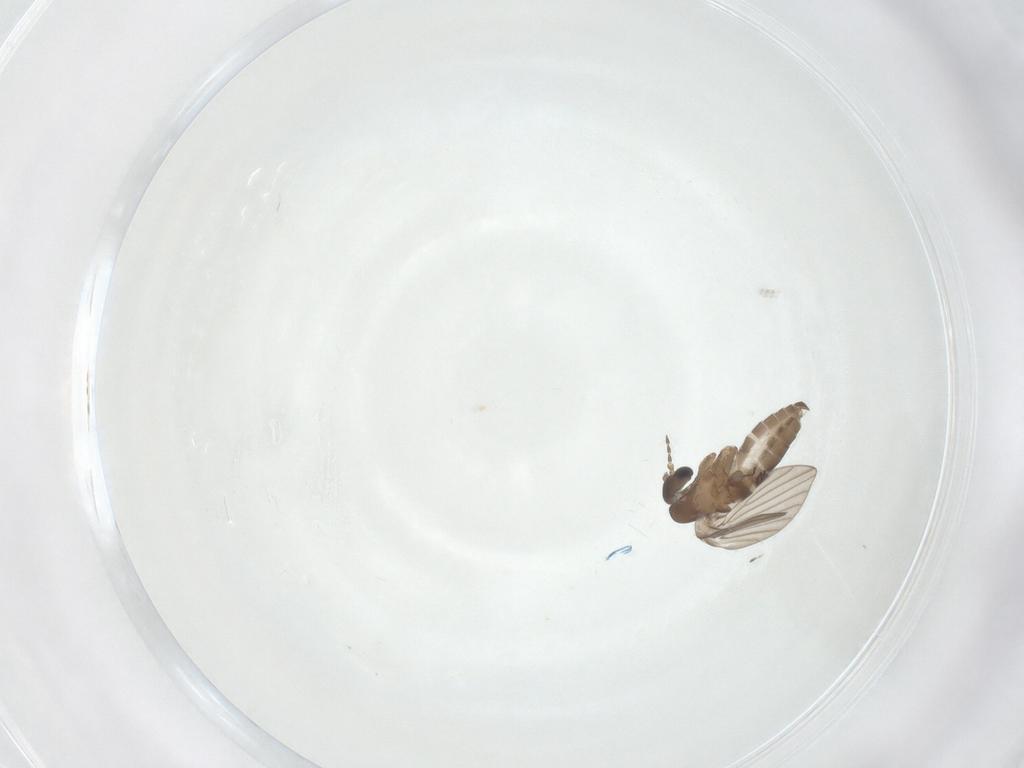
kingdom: Animalia
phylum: Arthropoda
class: Insecta
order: Diptera
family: Psychodidae
